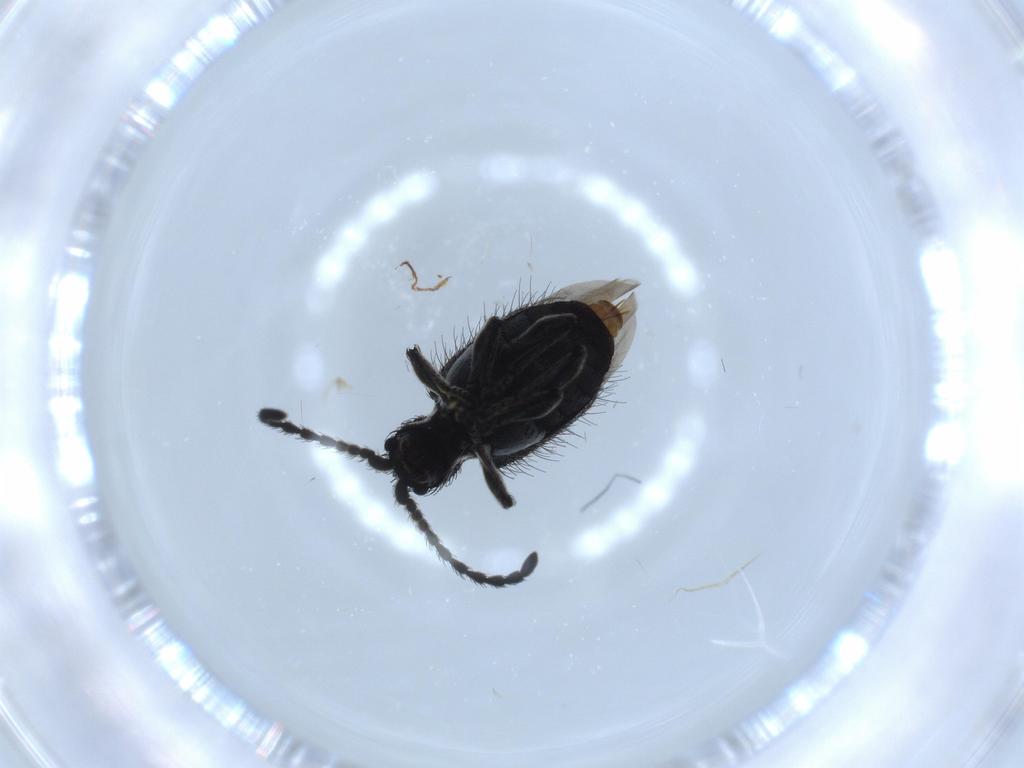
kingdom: Animalia
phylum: Arthropoda
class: Insecta
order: Coleoptera
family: Ptinidae
